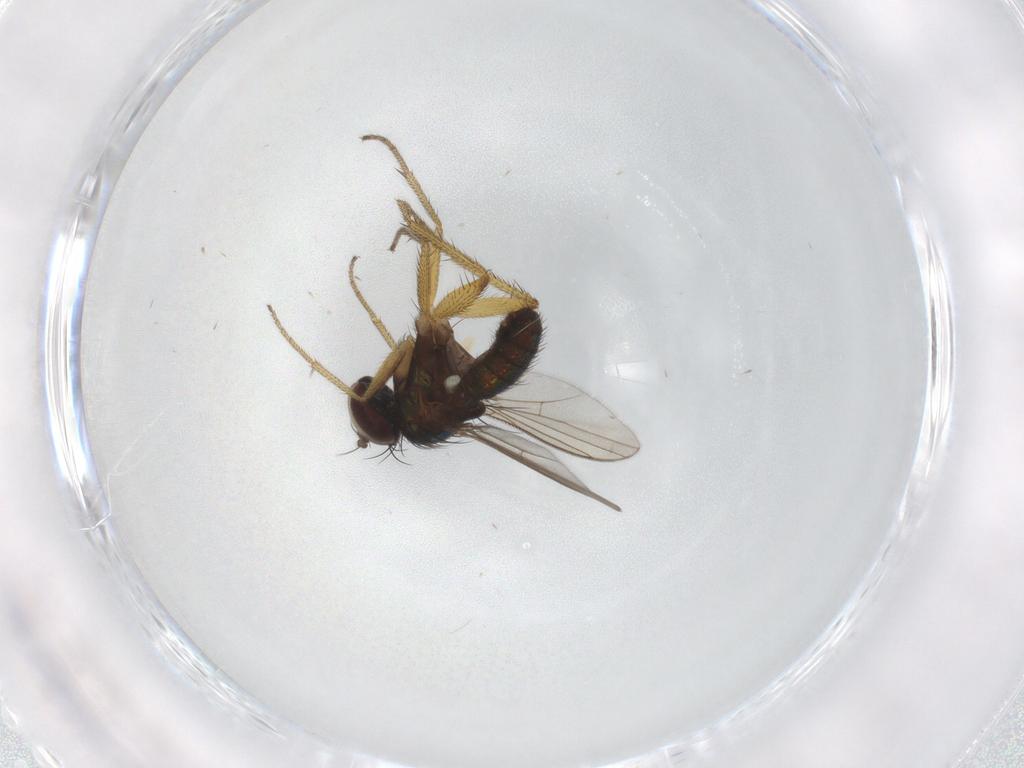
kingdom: Animalia
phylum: Arthropoda
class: Insecta
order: Diptera
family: Dolichopodidae
